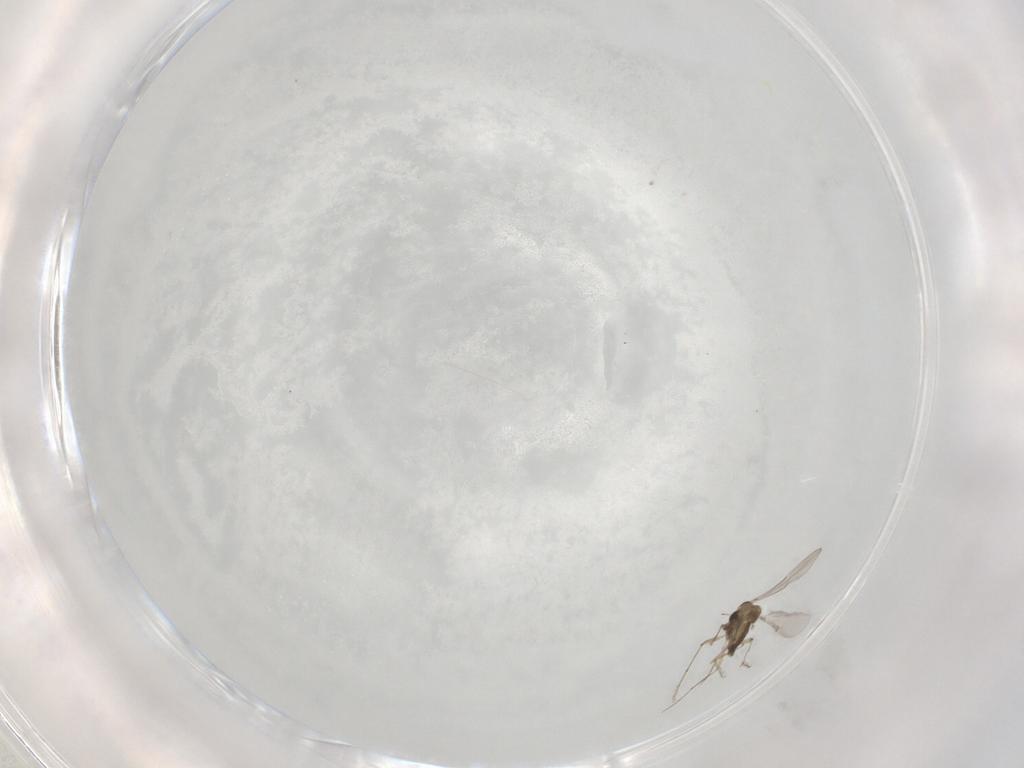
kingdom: Animalia
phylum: Arthropoda
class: Insecta
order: Diptera
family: Chironomidae
